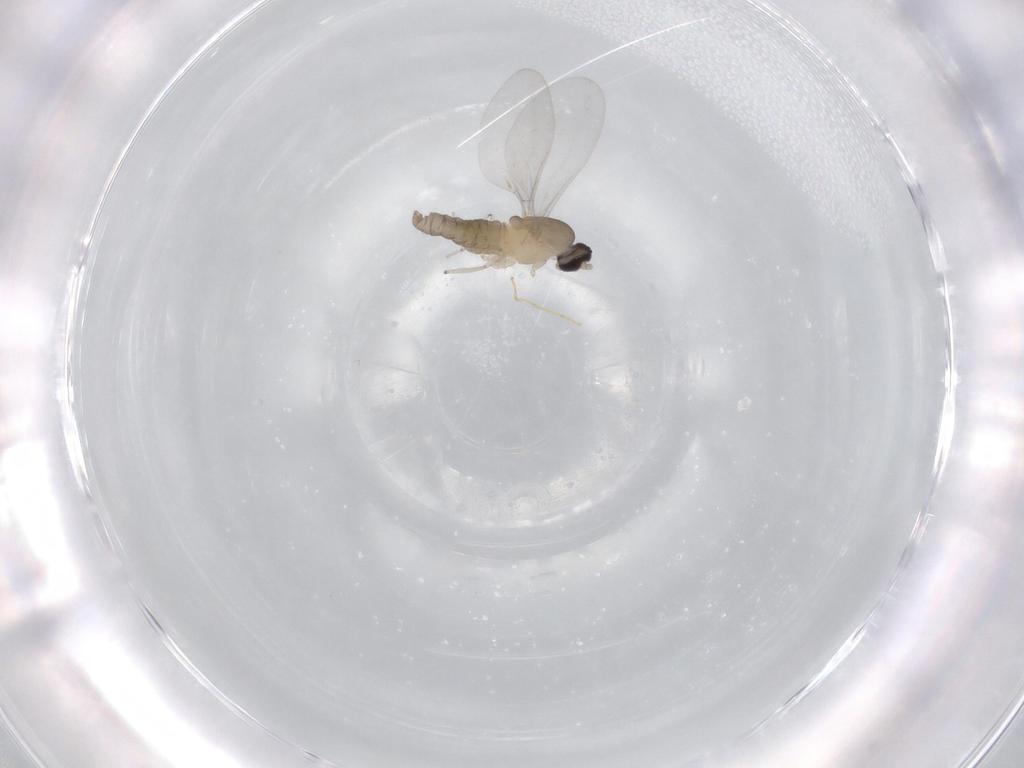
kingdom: Animalia
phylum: Arthropoda
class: Insecta
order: Diptera
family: Cecidomyiidae
